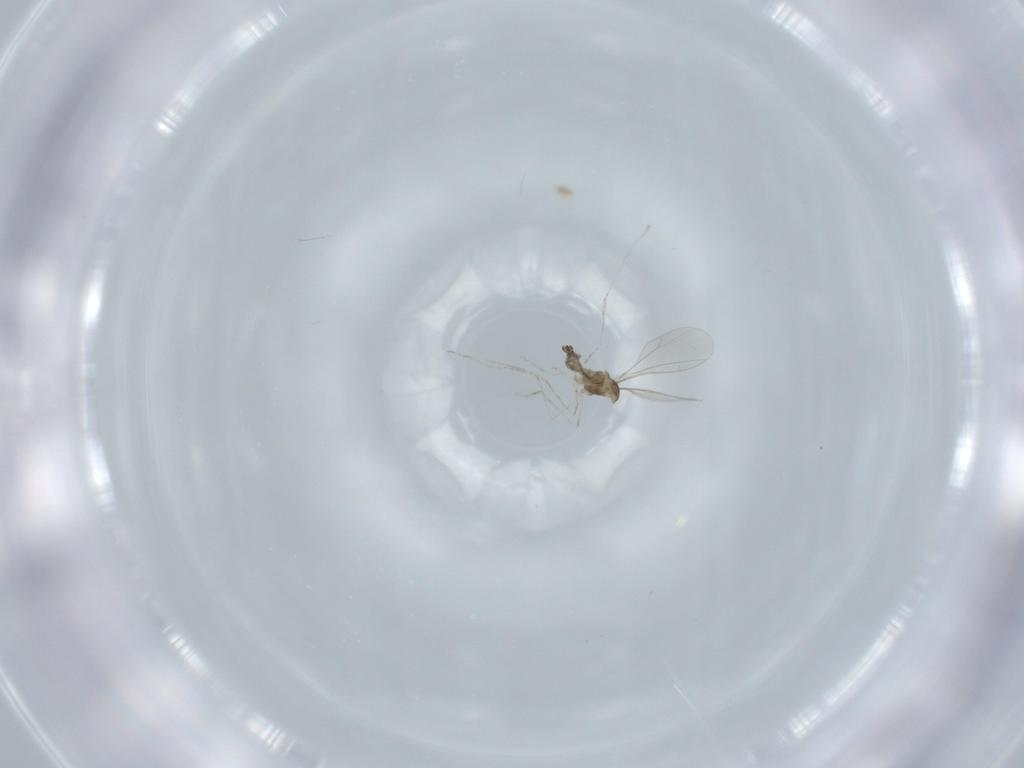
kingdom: Animalia
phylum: Arthropoda
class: Insecta
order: Diptera
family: Cecidomyiidae
